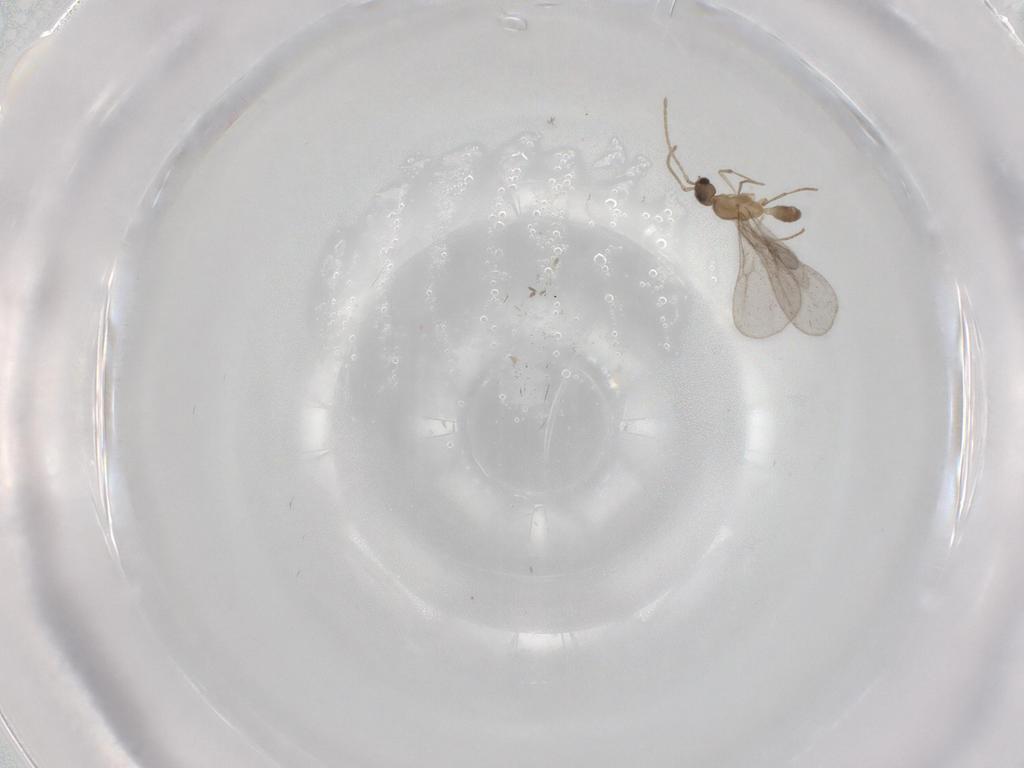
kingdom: Animalia
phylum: Arthropoda
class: Insecta
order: Hymenoptera
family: Formicidae
